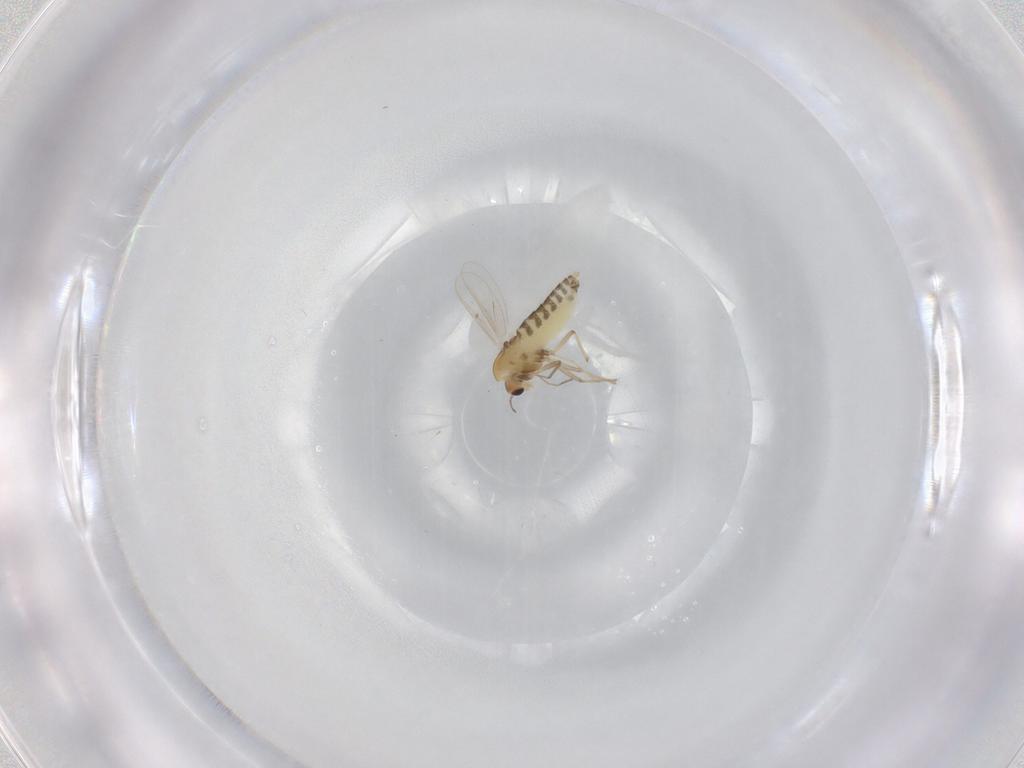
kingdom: Animalia
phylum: Arthropoda
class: Insecta
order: Diptera
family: Chironomidae
